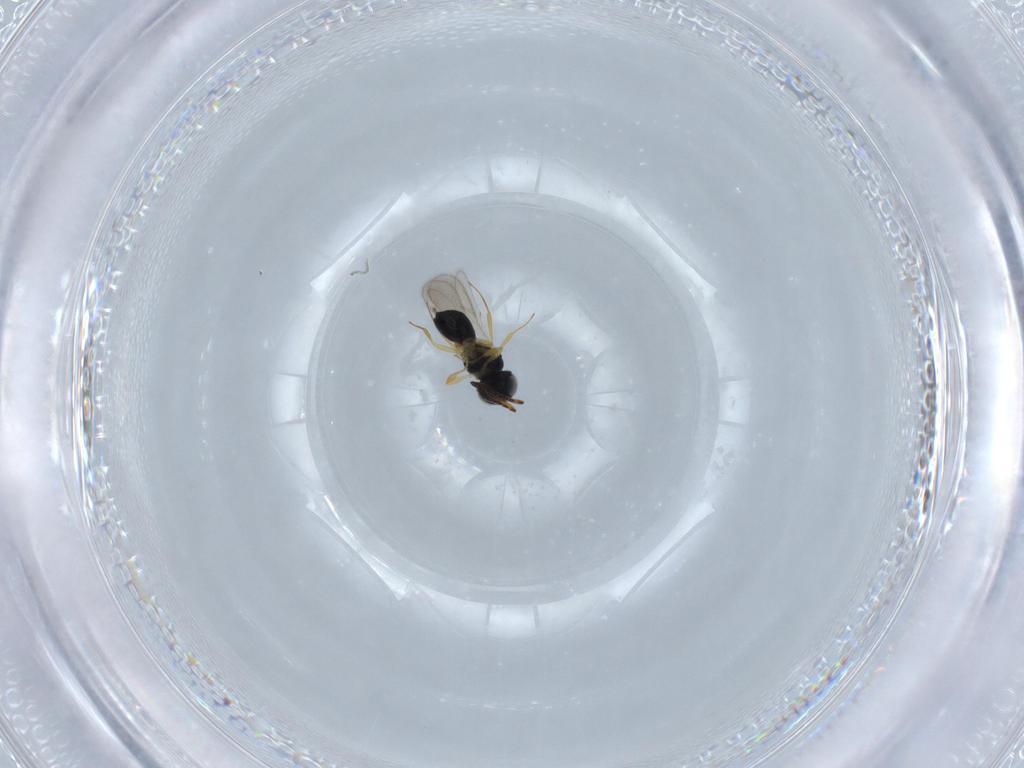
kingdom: Animalia
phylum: Arthropoda
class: Insecta
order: Hymenoptera
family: Scelionidae
